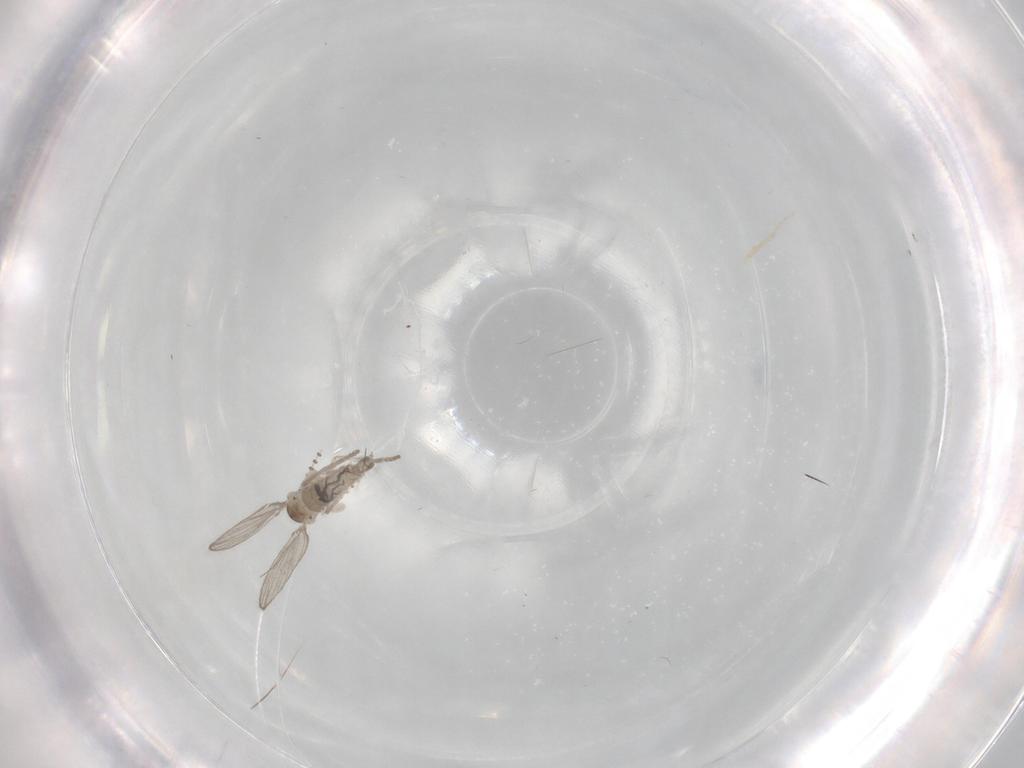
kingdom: Animalia
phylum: Arthropoda
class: Insecta
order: Diptera
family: Psychodidae
